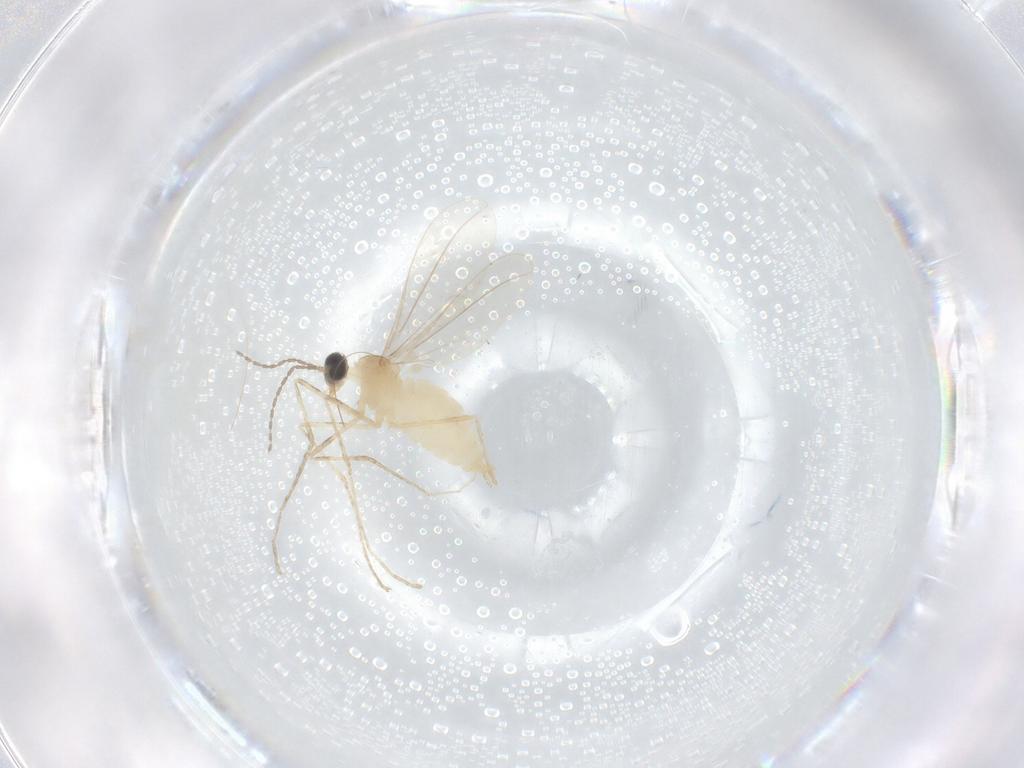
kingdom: Animalia
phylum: Arthropoda
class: Insecta
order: Diptera
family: Cecidomyiidae
